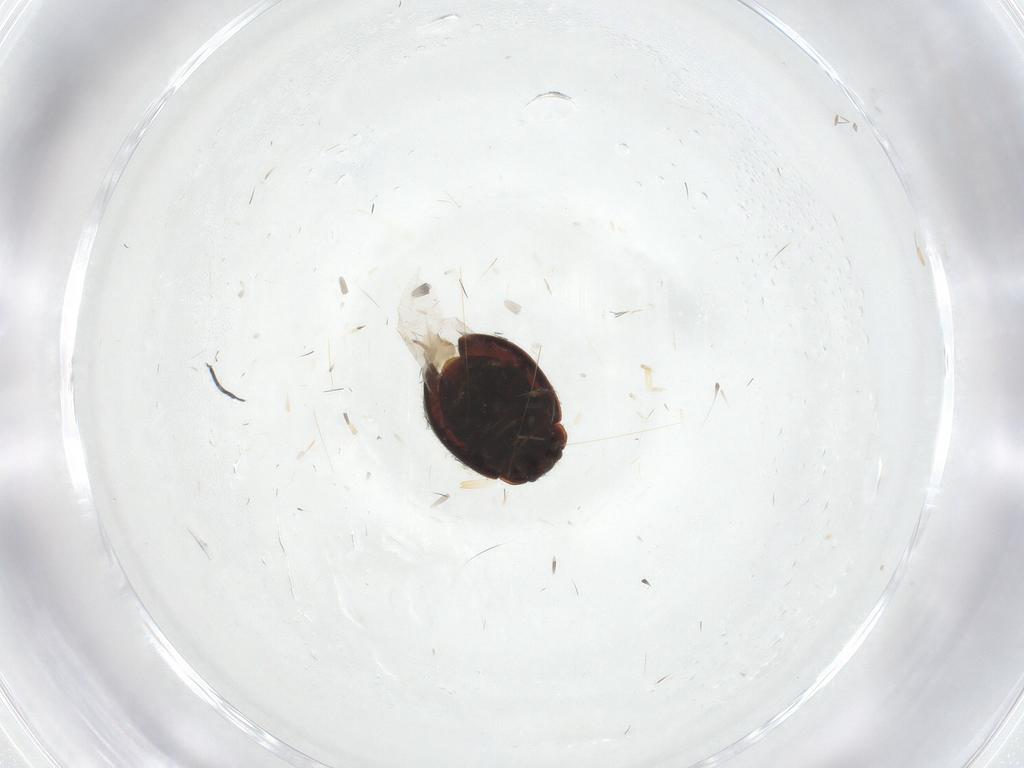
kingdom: Animalia
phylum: Arthropoda
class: Insecta
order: Coleoptera
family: Coccinellidae
